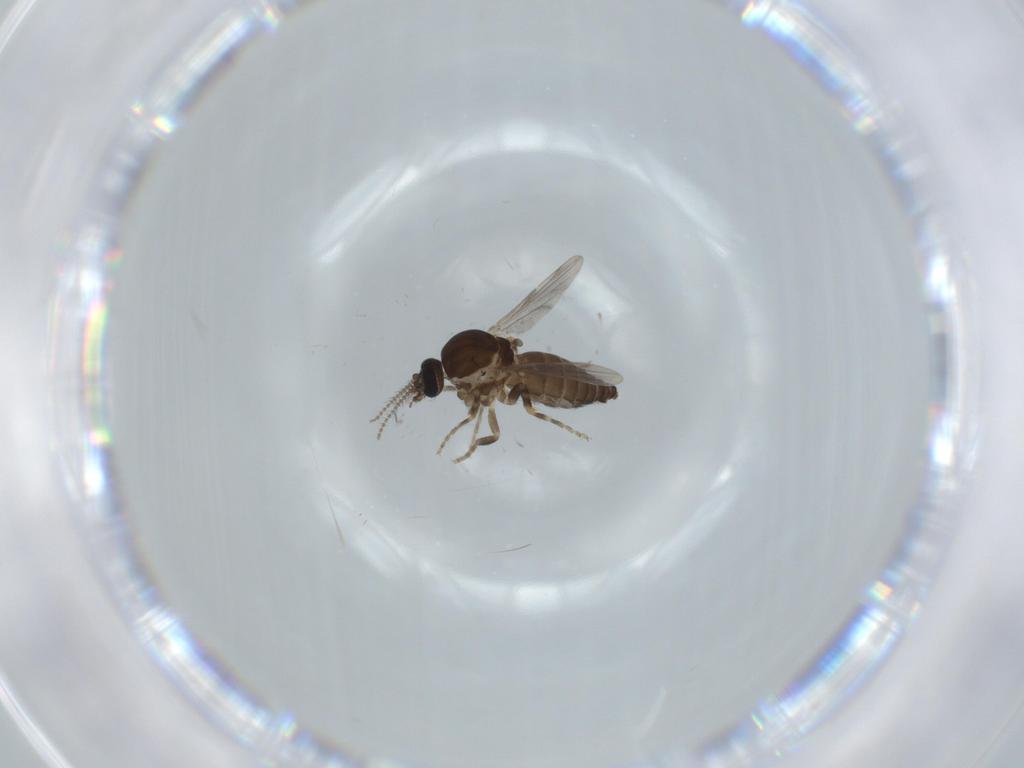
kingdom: Animalia
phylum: Arthropoda
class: Insecta
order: Diptera
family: Ceratopogonidae
